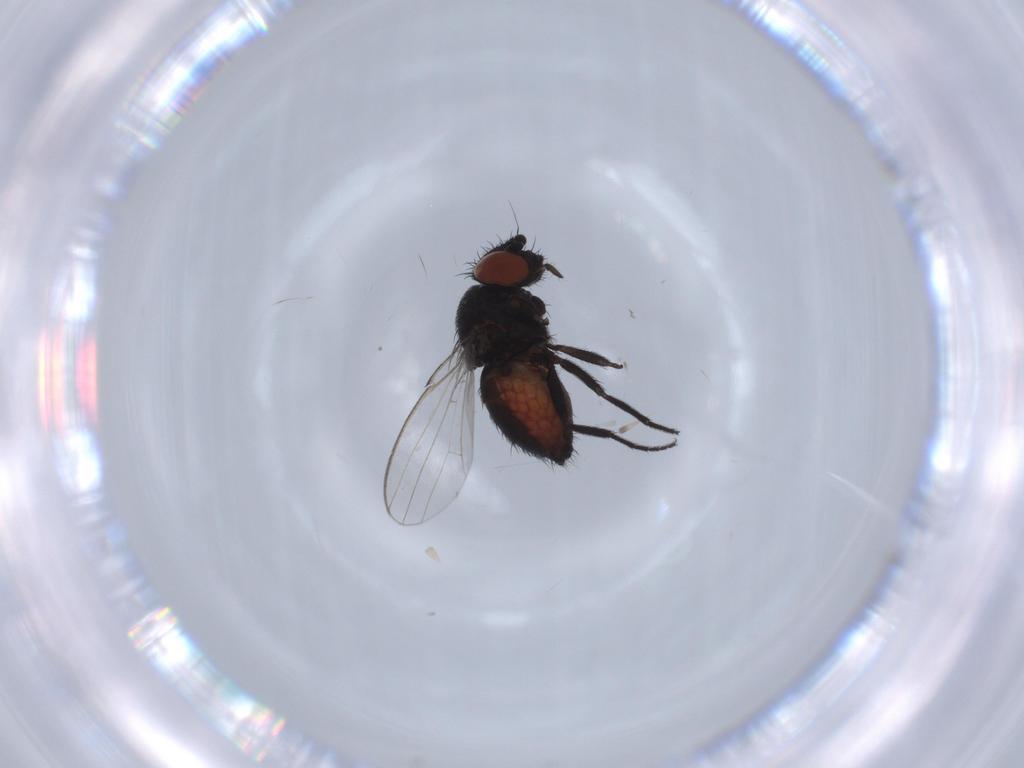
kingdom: Animalia
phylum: Arthropoda
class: Insecta
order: Diptera
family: Milichiidae
